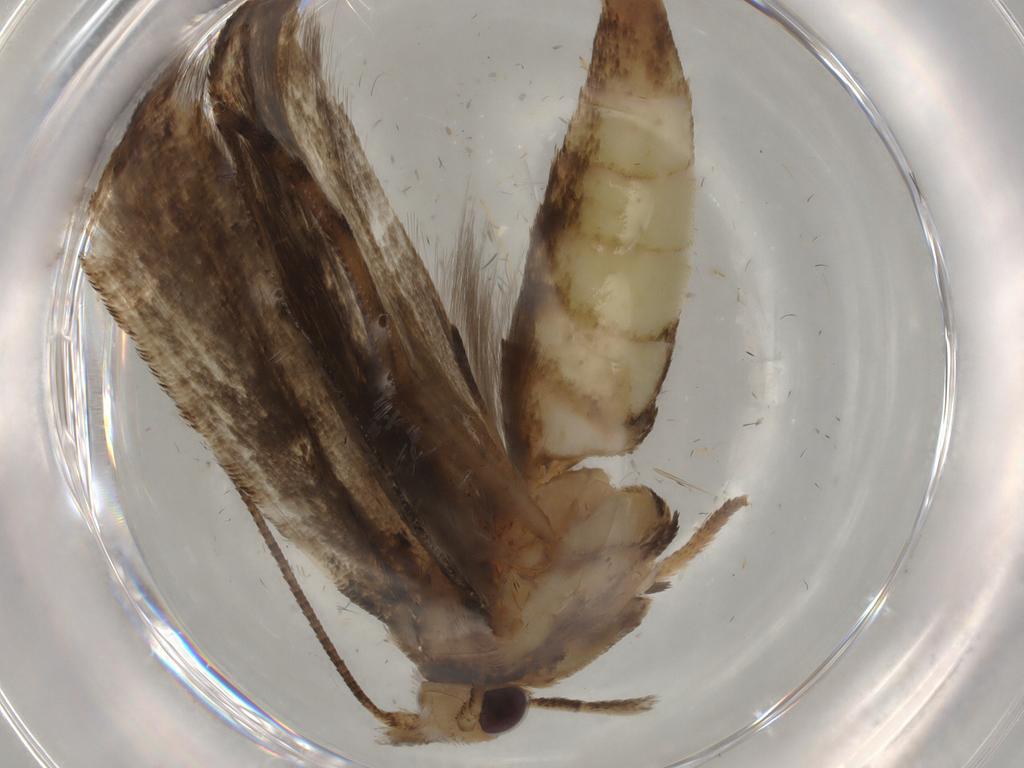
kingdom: Animalia
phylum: Arthropoda
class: Insecta
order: Lepidoptera
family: Yponomeutidae
